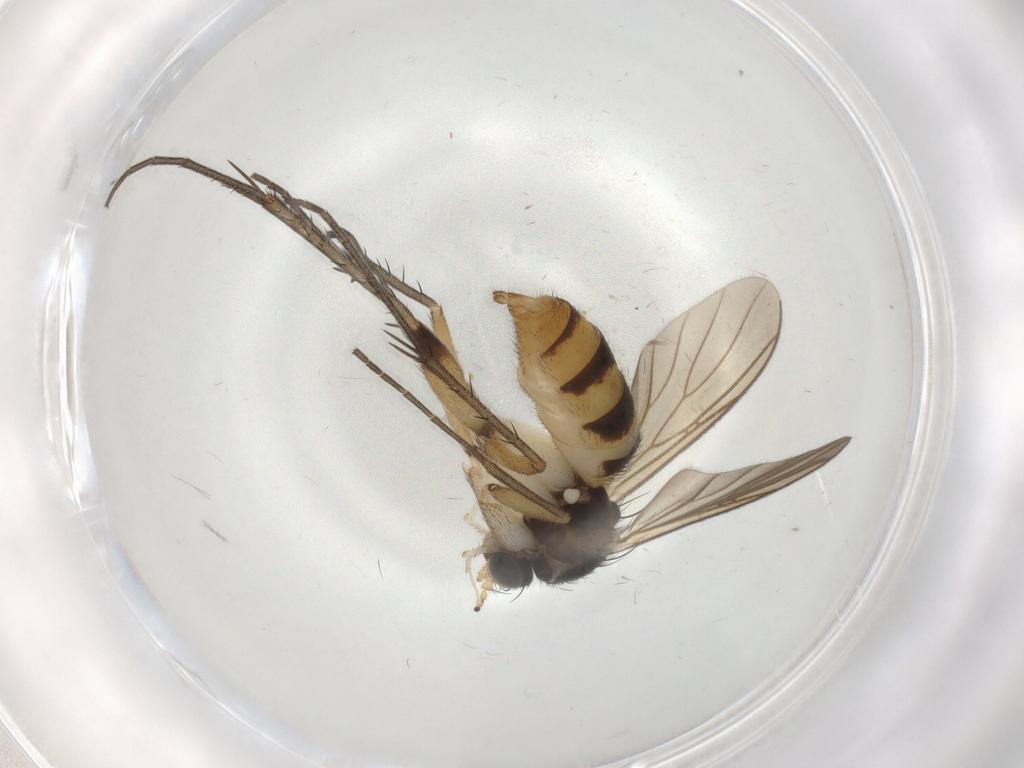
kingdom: Animalia
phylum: Arthropoda
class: Insecta
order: Diptera
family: Mycetophilidae
